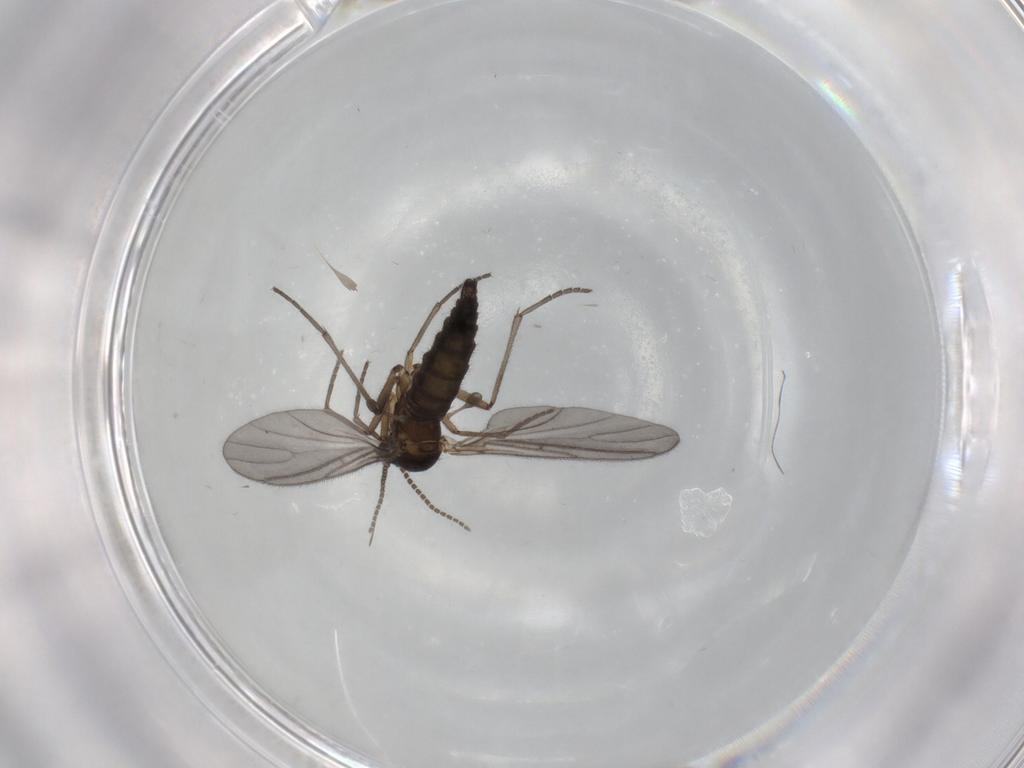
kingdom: Animalia
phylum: Arthropoda
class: Insecta
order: Diptera
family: Sciaridae
